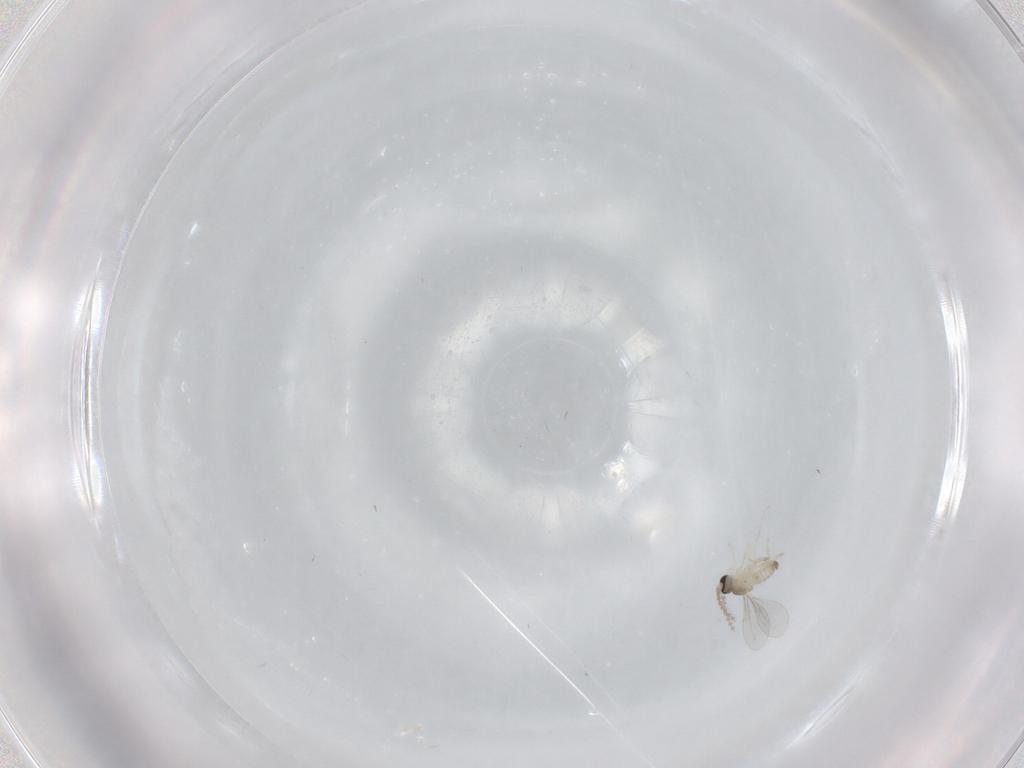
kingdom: Animalia
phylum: Arthropoda
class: Insecta
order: Diptera
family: Cecidomyiidae
